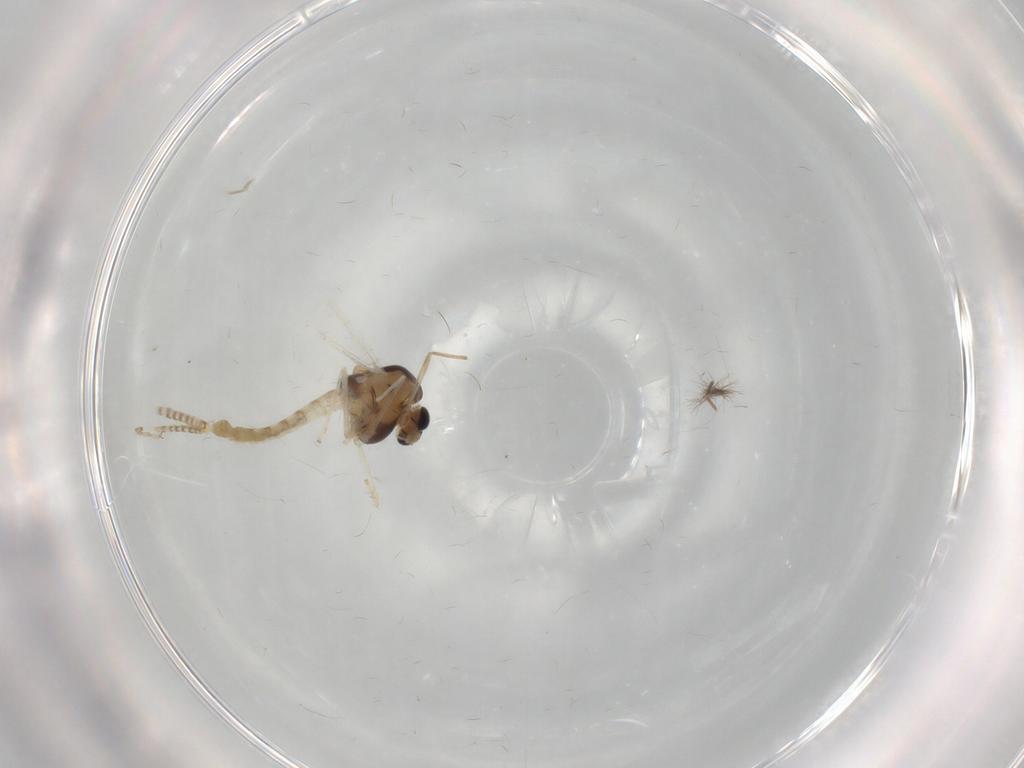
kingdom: Animalia
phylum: Arthropoda
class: Insecta
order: Diptera
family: Chironomidae
